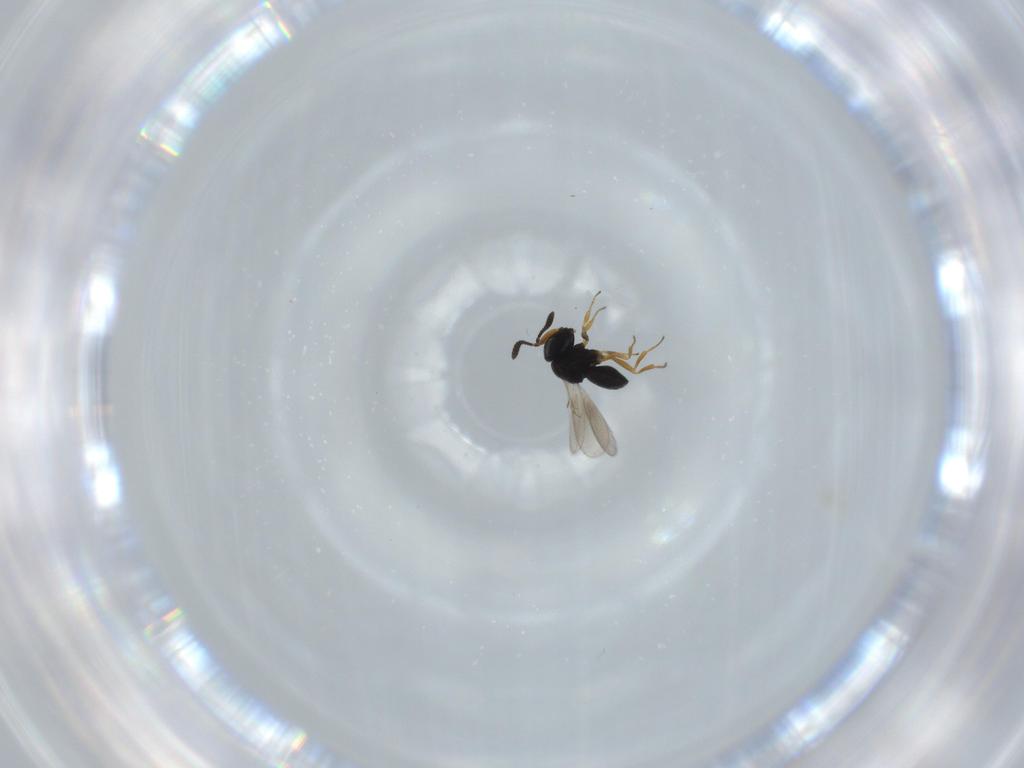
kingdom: Animalia
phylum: Arthropoda
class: Insecta
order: Hymenoptera
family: Scelionidae
